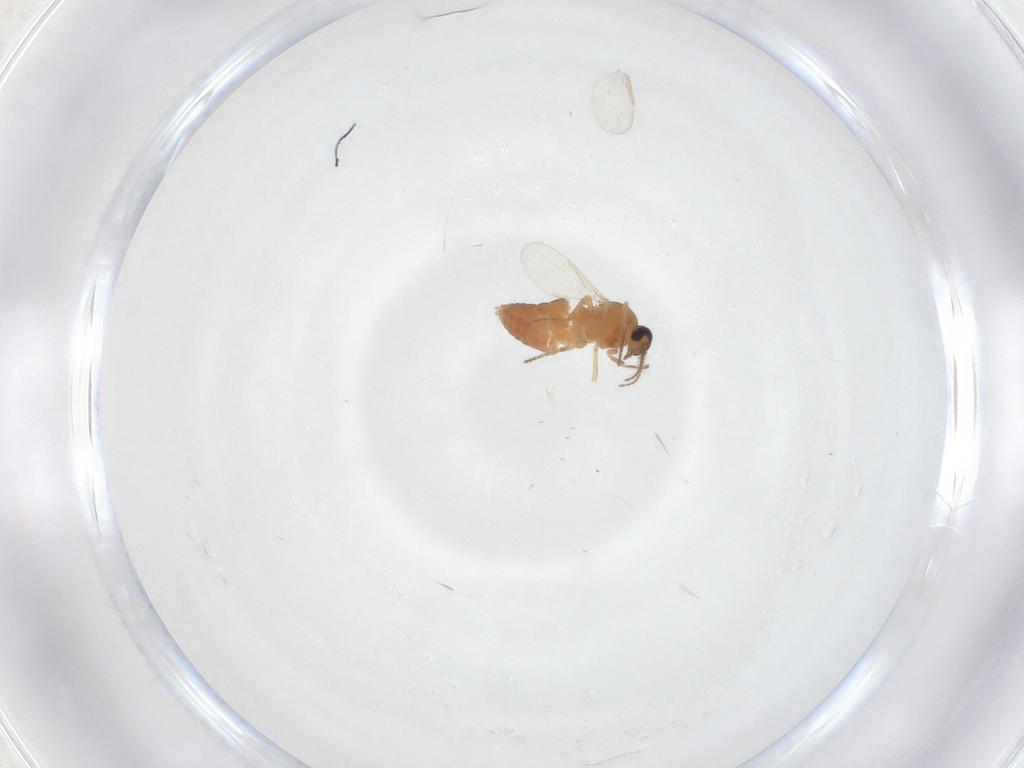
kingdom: Animalia
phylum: Arthropoda
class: Insecta
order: Diptera
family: Ceratopogonidae
